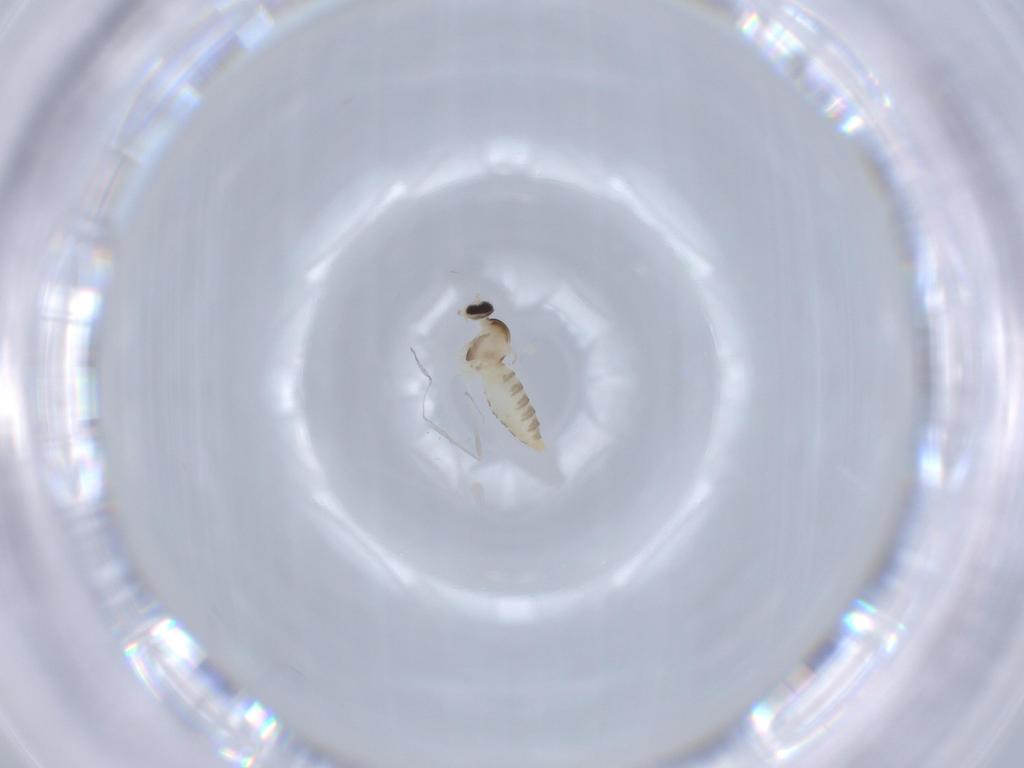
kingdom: Animalia
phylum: Arthropoda
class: Insecta
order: Diptera
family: Cecidomyiidae
